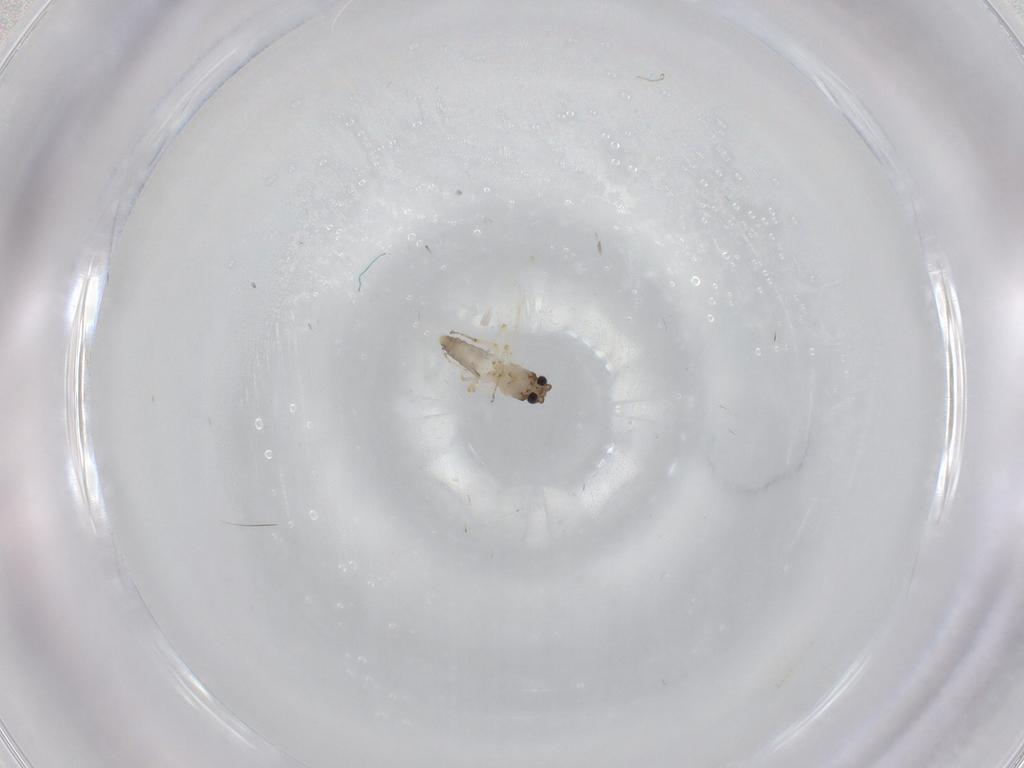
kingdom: Animalia
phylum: Arthropoda
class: Insecta
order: Diptera
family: Ceratopogonidae
